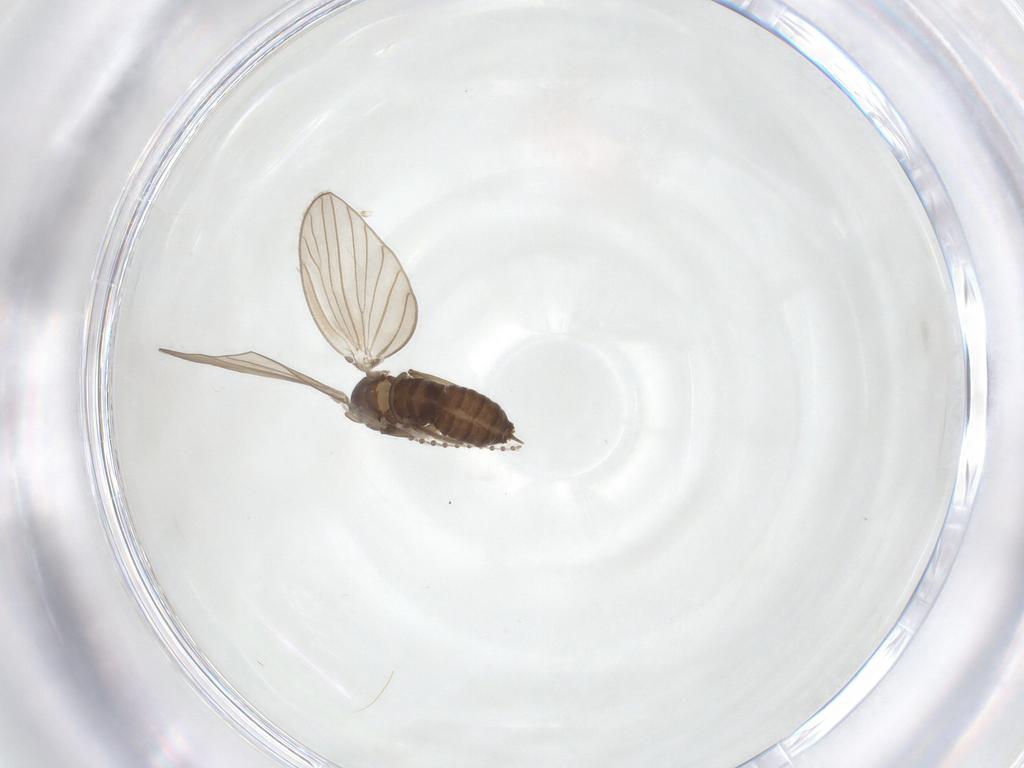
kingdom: Animalia
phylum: Arthropoda
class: Insecta
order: Diptera
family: Psychodidae
